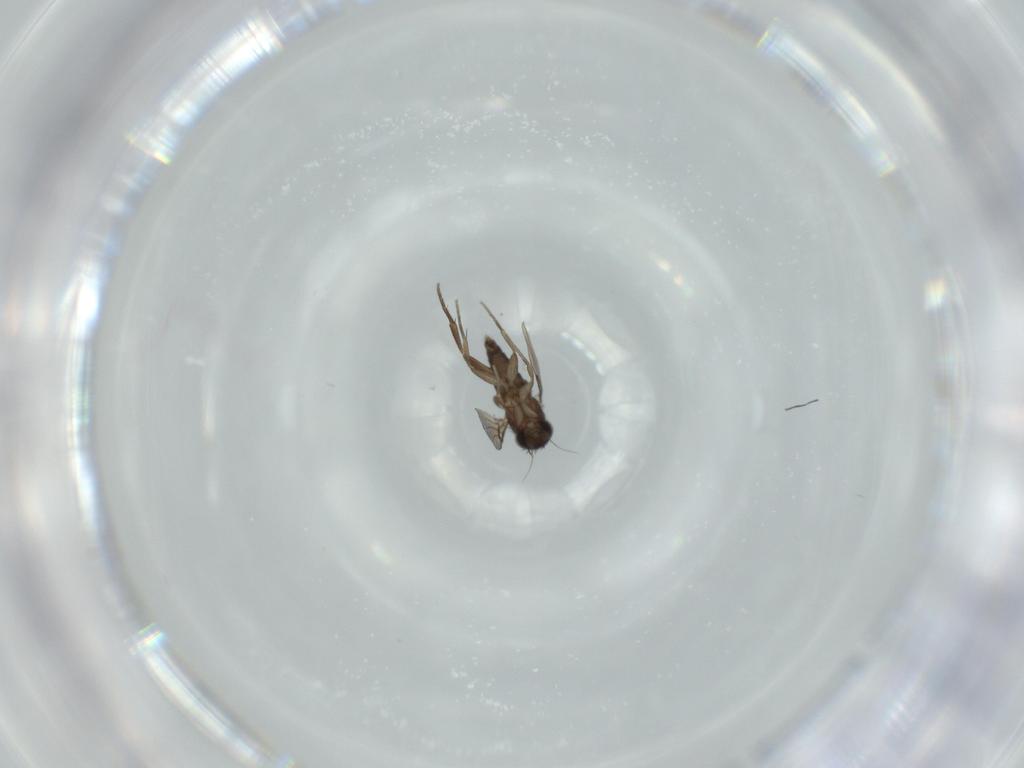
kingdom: Animalia
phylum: Arthropoda
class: Insecta
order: Diptera
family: Phoridae
